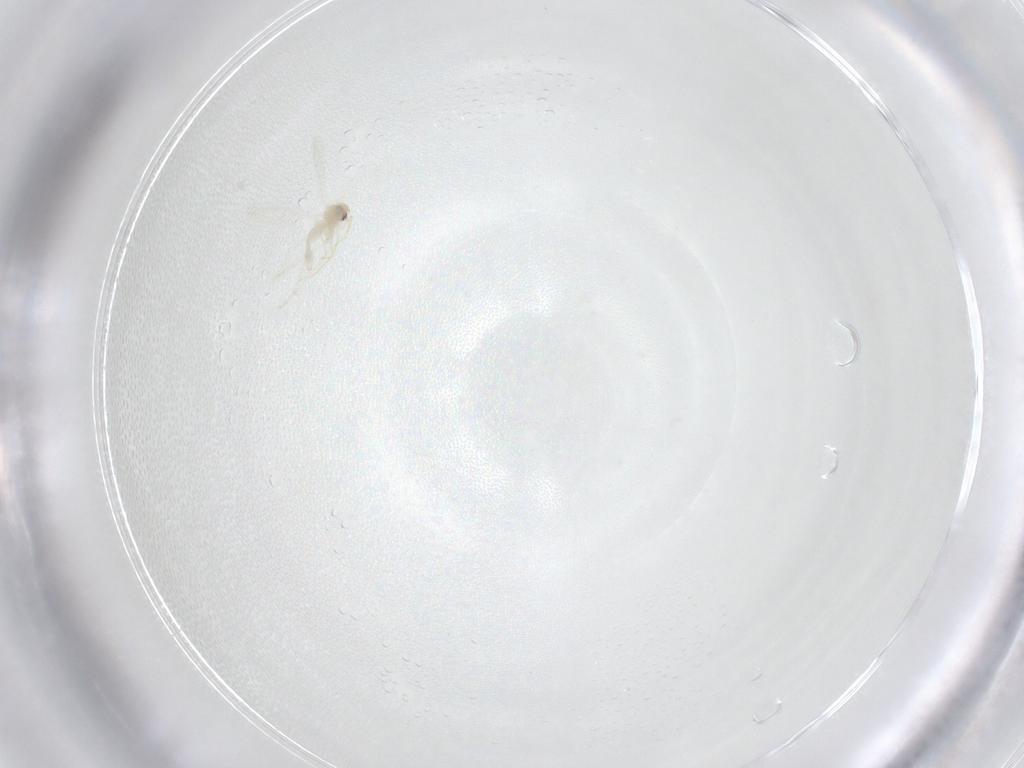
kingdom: Animalia
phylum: Arthropoda
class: Insecta
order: Hemiptera
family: Aleyrodidae
